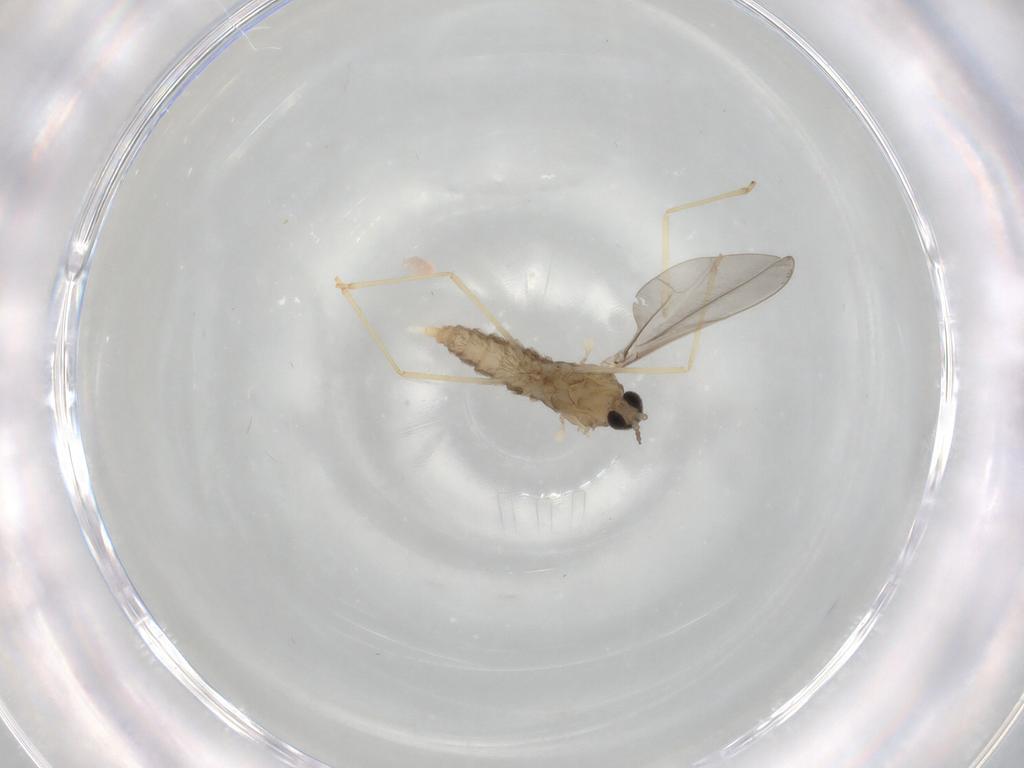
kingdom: Animalia
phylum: Arthropoda
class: Insecta
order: Diptera
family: Cecidomyiidae
